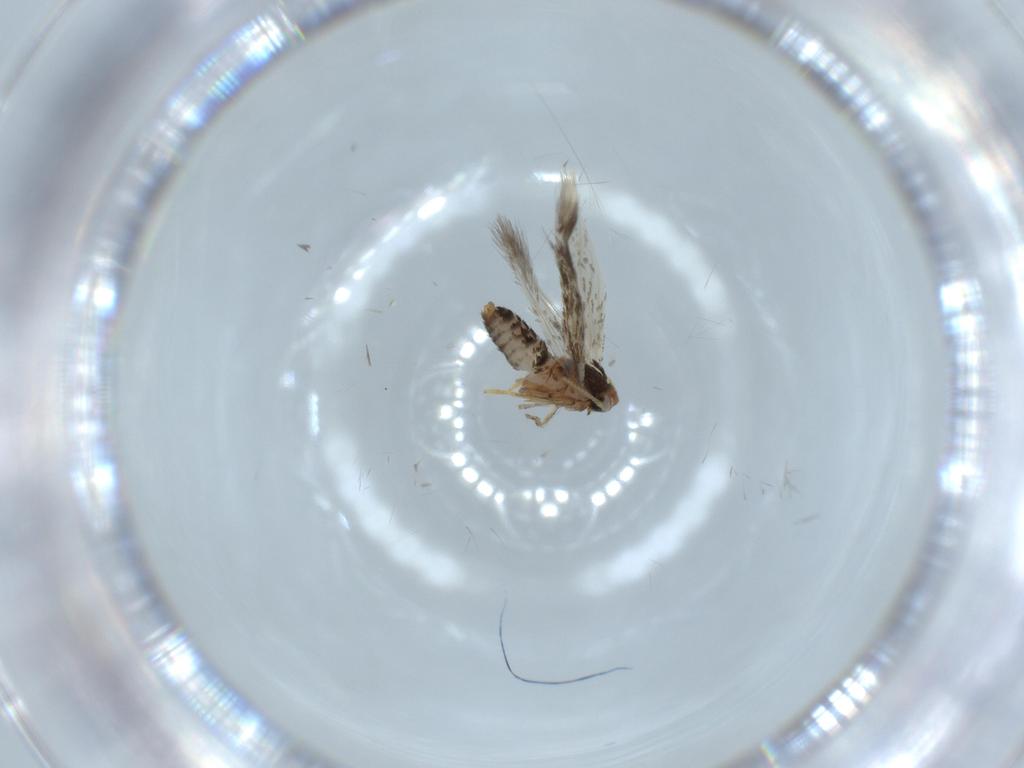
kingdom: Animalia
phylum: Arthropoda
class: Insecta
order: Lepidoptera
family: Nepticulidae
